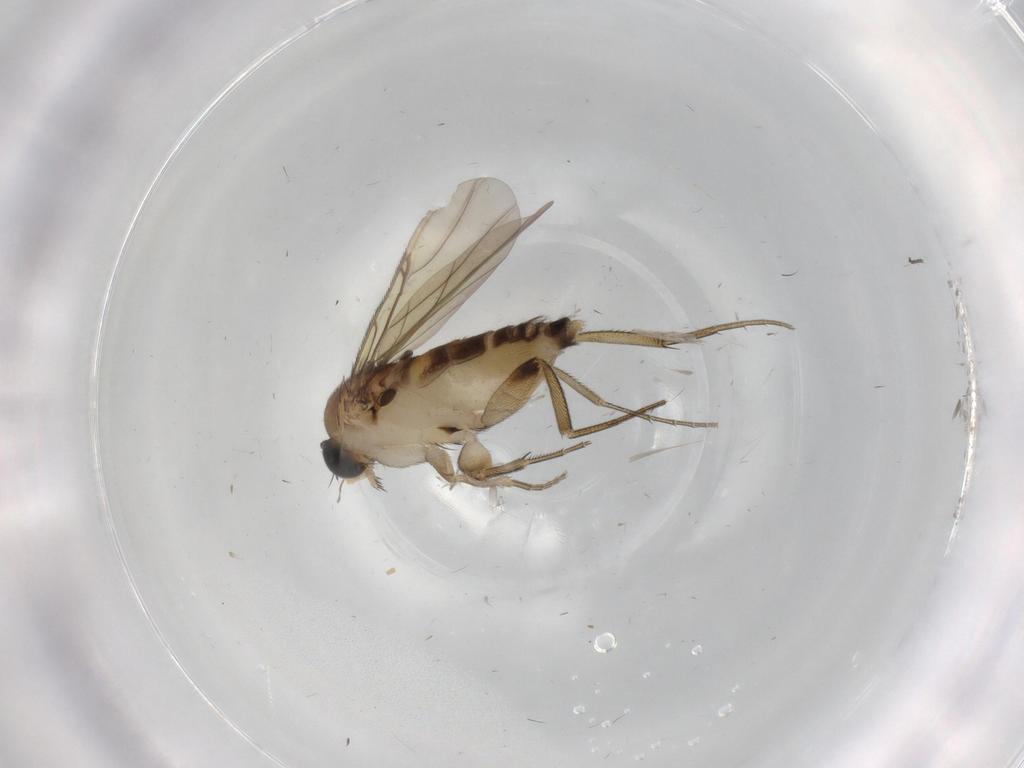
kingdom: Animalia
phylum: Arthropoda
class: Insecta
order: Diptera
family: Phoridae
